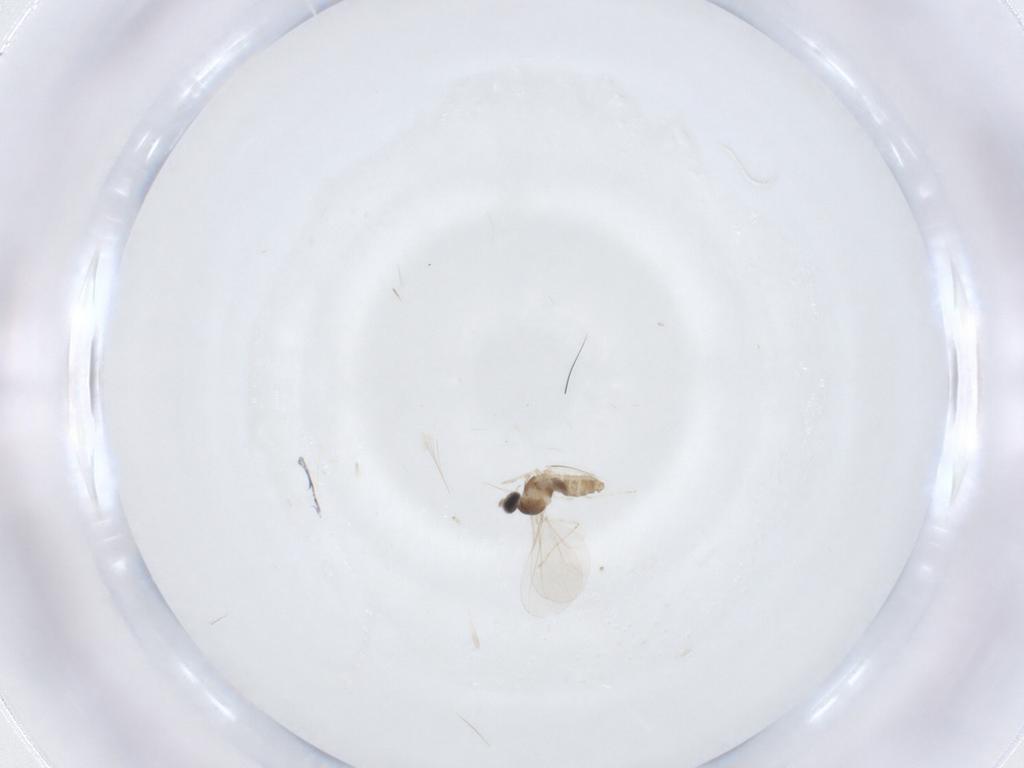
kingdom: Animalia
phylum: Arthropoda
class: Insecta
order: Diptera
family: Cecidomyiidae
